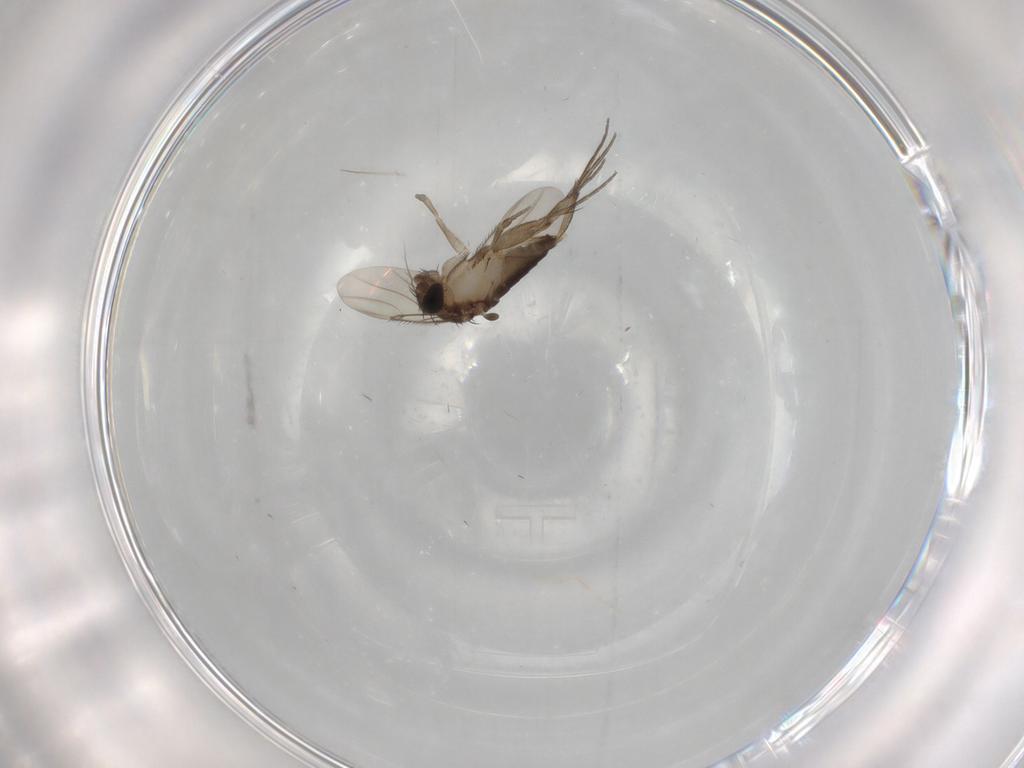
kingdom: Animalia
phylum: Arthropoda
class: Insecta
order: Diptera
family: Phoridae
